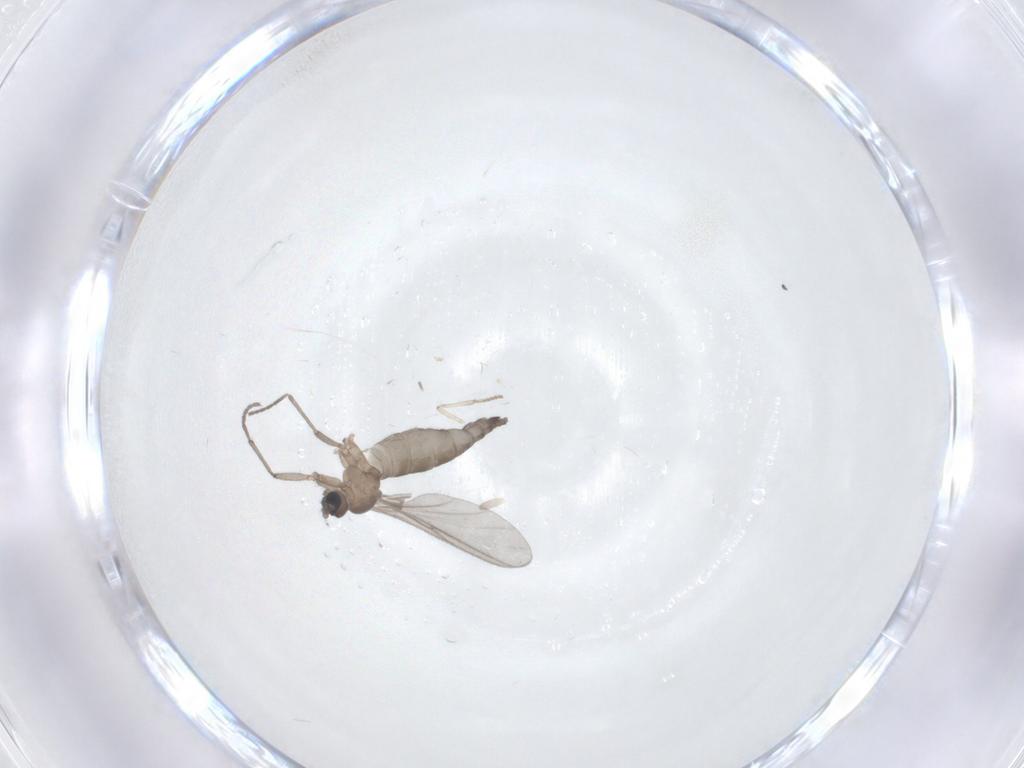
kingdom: Animalia
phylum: Arthropoda
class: Insecta
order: Diptera
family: Sciaridae
